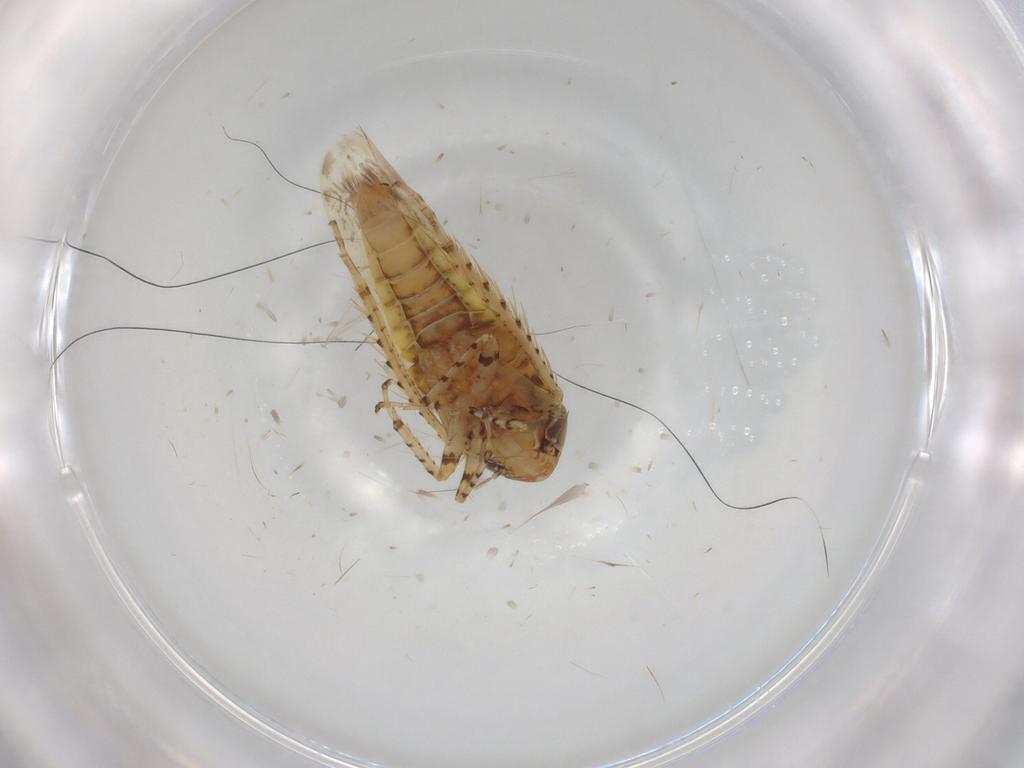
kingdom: Animalia
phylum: Arthropoda
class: Insecta
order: Hemiptera
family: Cicadellidae
